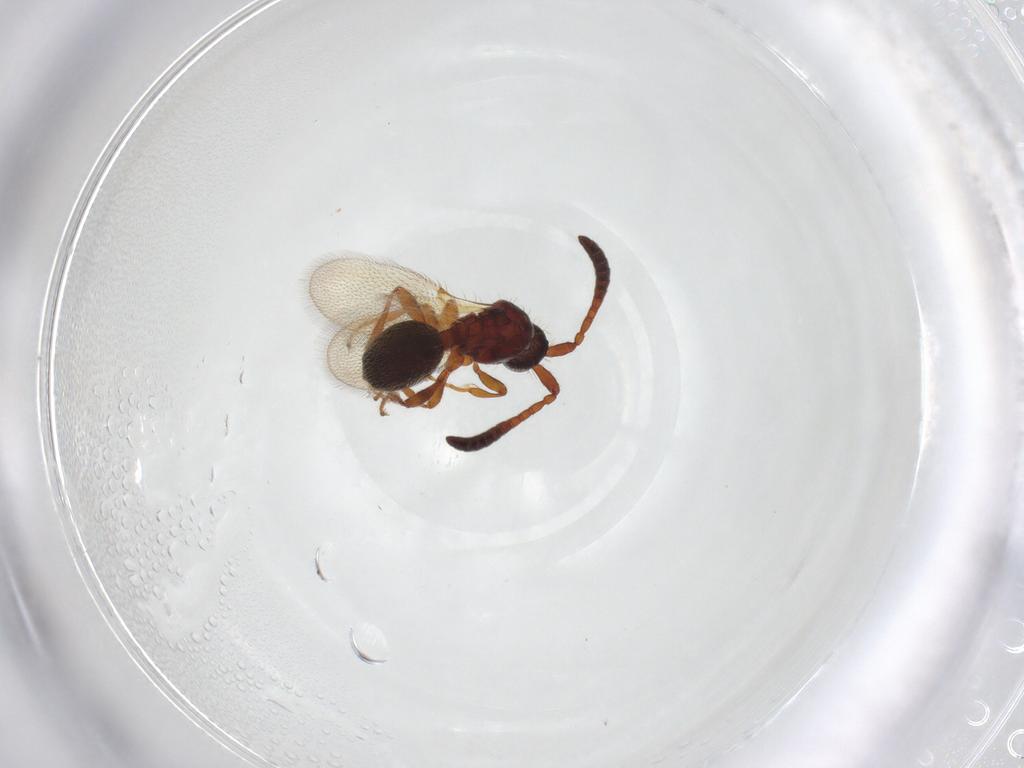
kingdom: Animalia
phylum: Arthropoda
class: Insecta
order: Hymenoptera
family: Diapriidae
